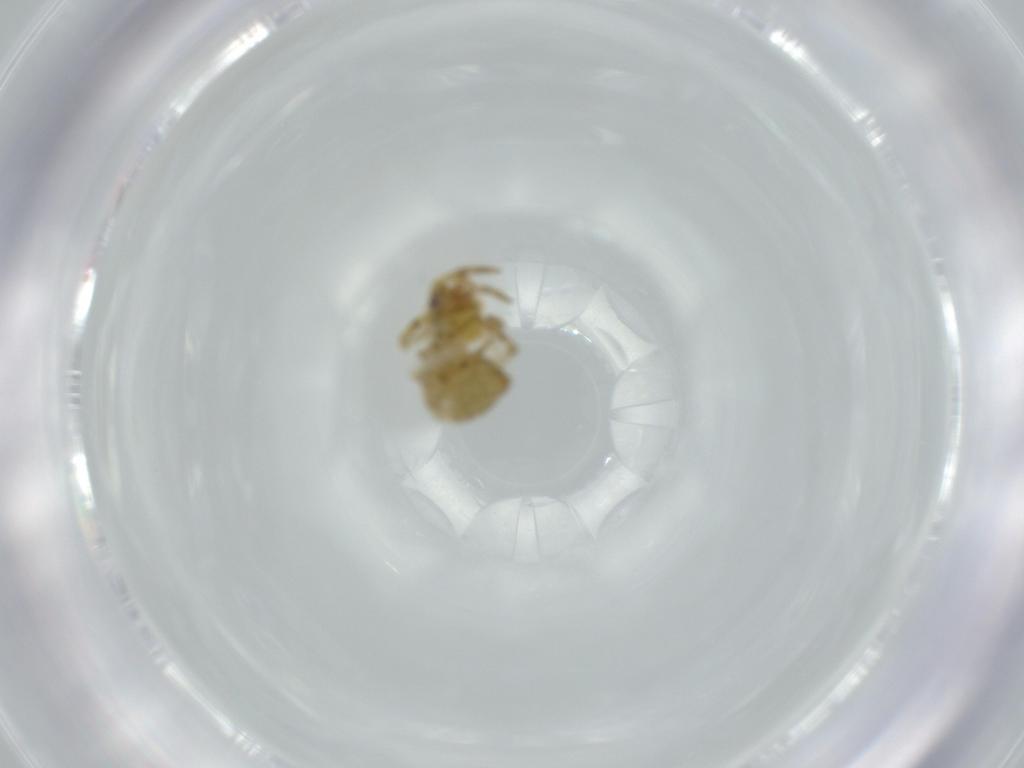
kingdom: Animalia
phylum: Arthropoda
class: Arachnida
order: Araneae
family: Theridiidae
